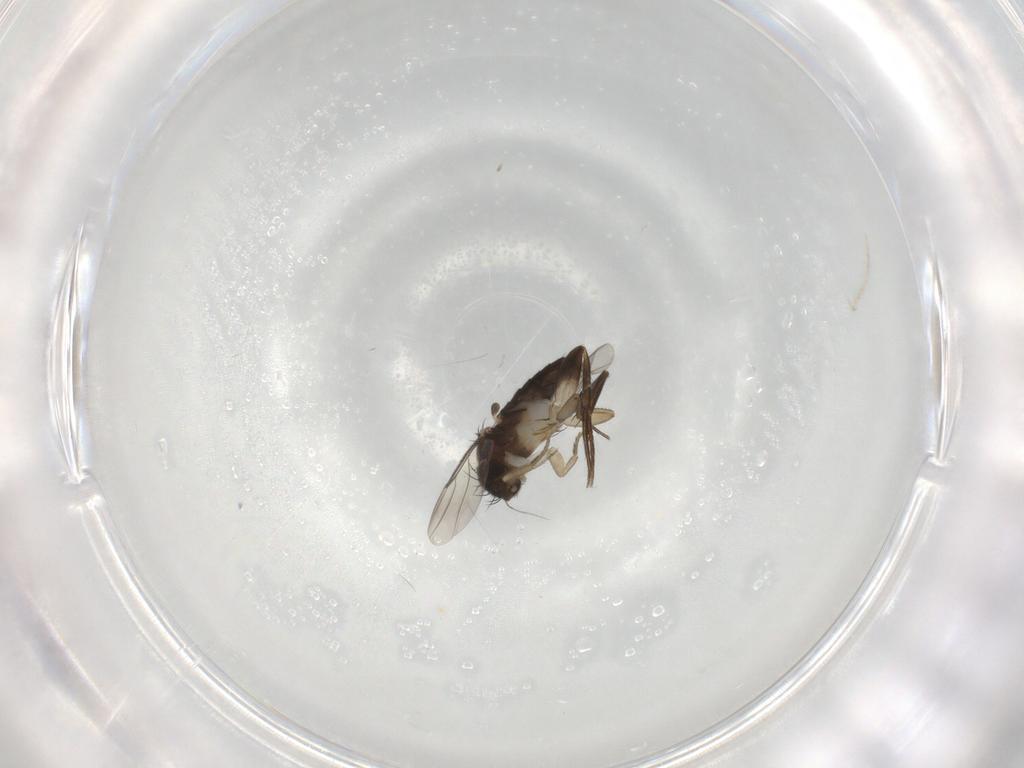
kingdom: Animalia
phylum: Arthropoda
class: Insecta
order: Diptera
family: Phoridae
